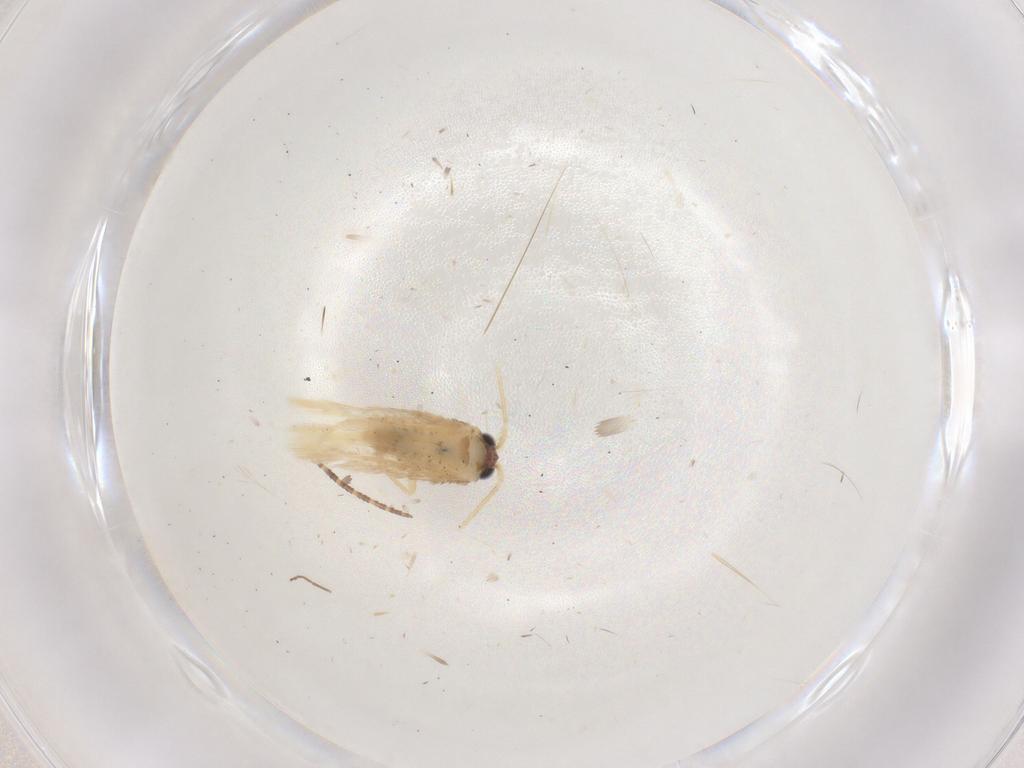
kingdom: Animalia
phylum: Arthropoda
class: Insecta
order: Lepidoptera
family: Nepticulidae
